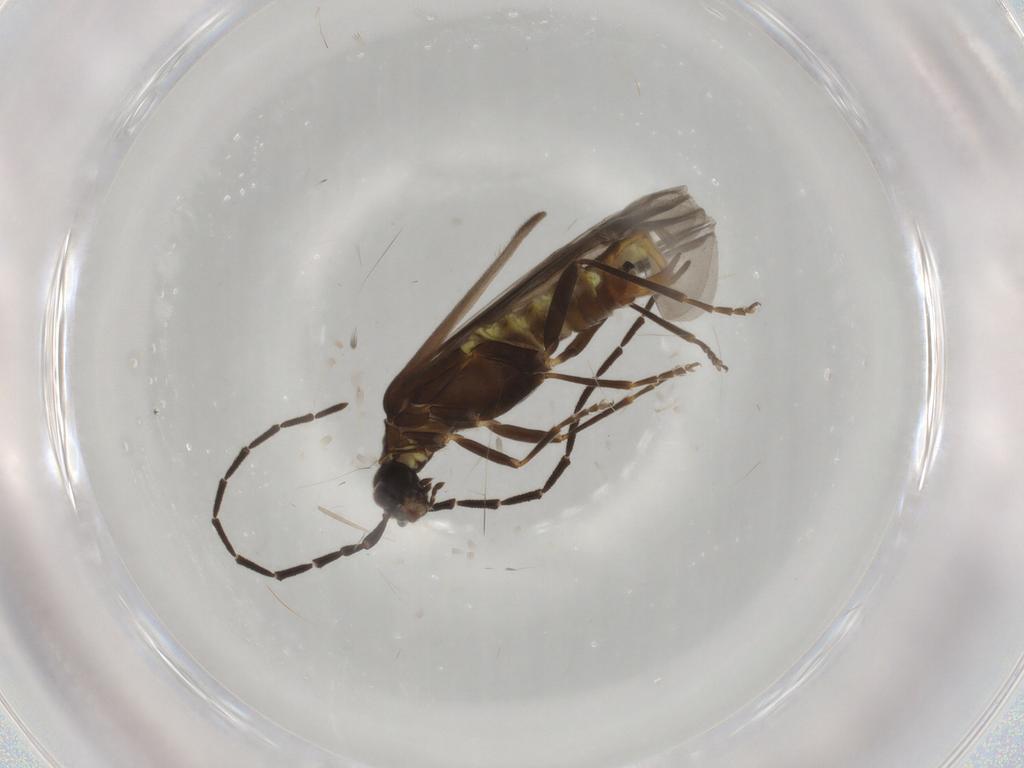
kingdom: Animalia
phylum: Arthropoda
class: Insecta
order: Coleoptera
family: Cantharidae
